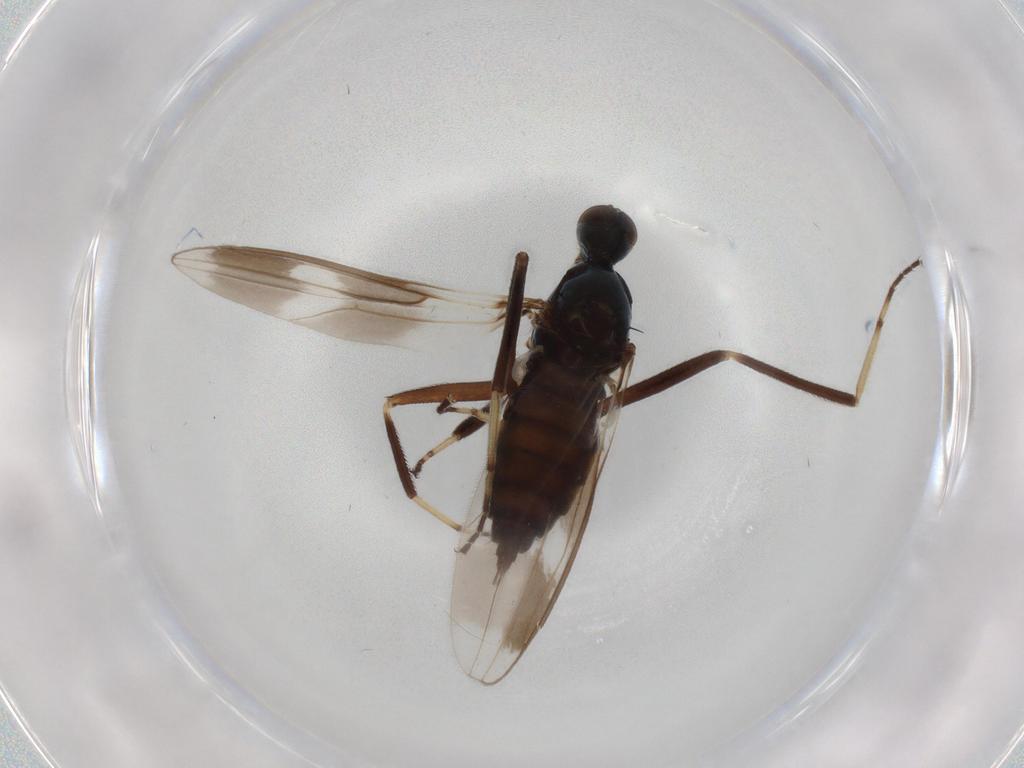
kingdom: Animalia
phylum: Arthropoda
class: Insecta
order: Diptera
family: Hybotidae
